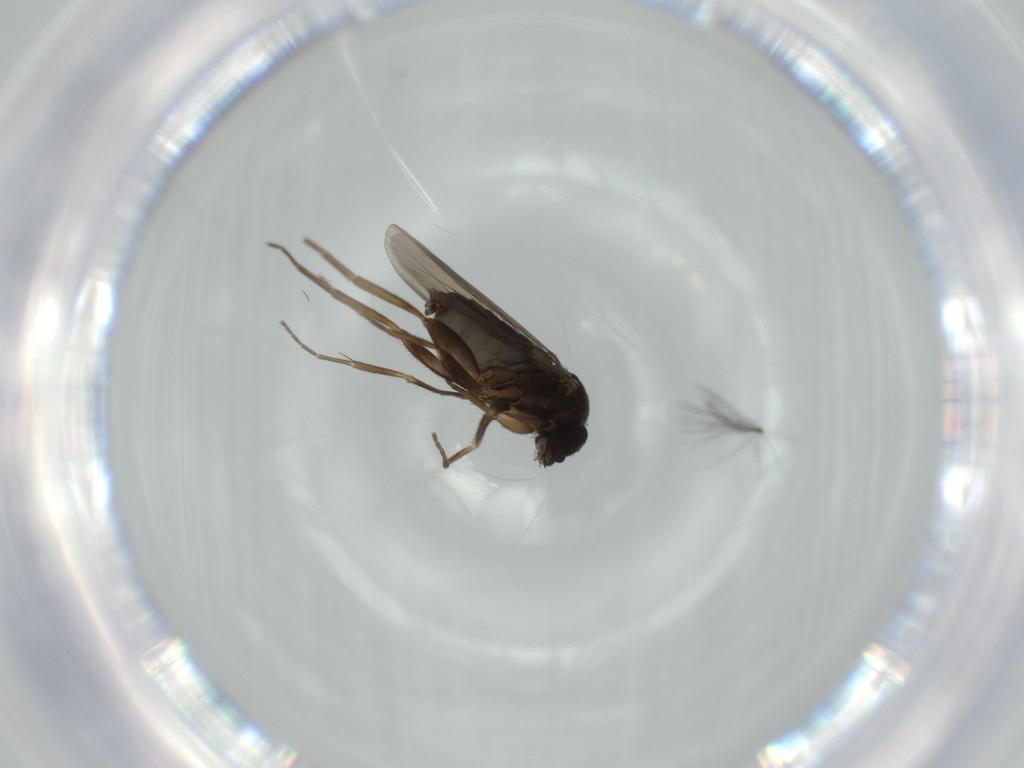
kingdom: Animalia
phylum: Arthropoda
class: Insecta
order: Diptera
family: Phoridae
